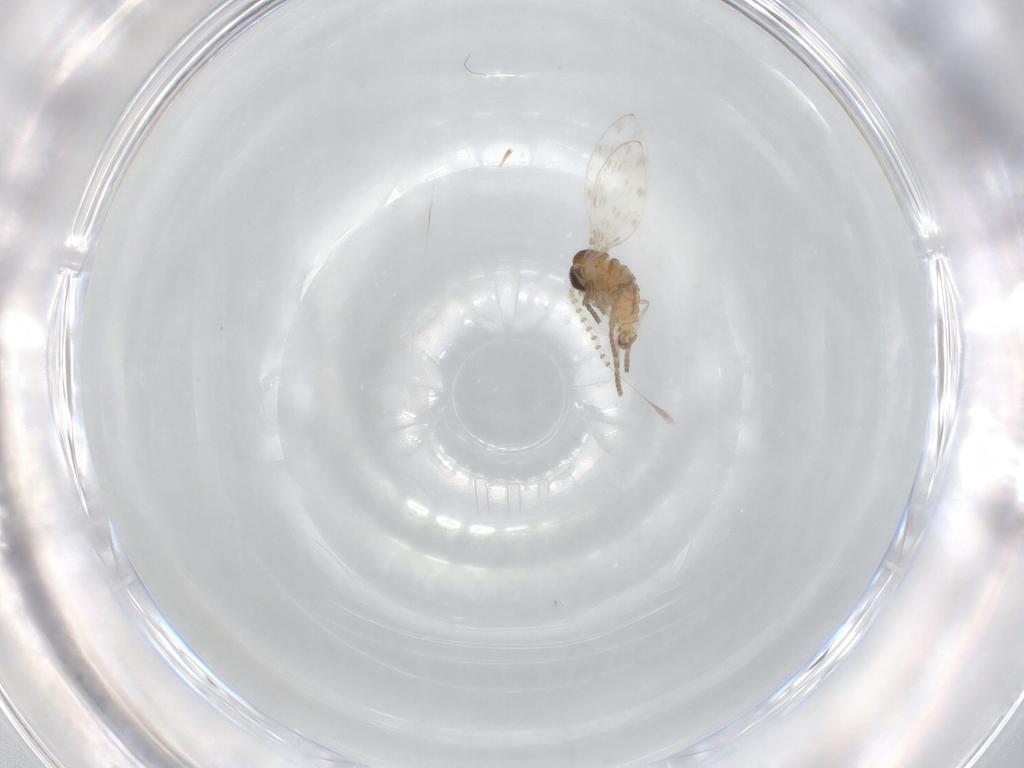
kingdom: Animalia
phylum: Arthropoda
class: Insecta
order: Diptera
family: Psychodidae
